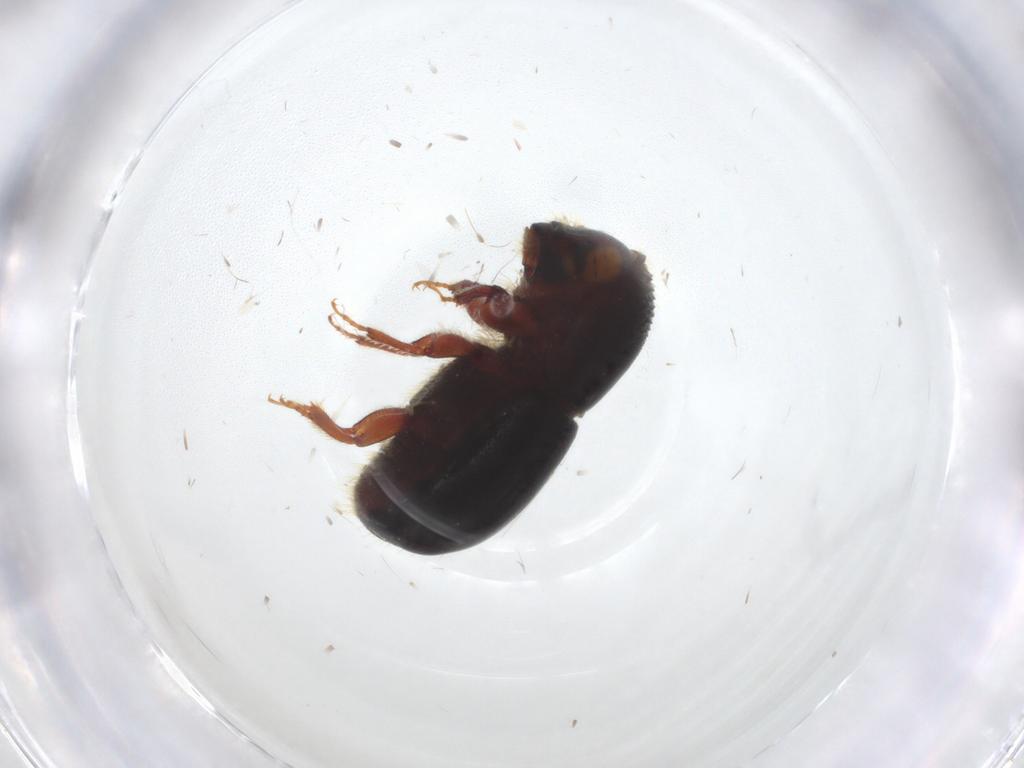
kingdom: Animalia
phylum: Arthropoda
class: Insecta
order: Coleoptera
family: Curculionidae
